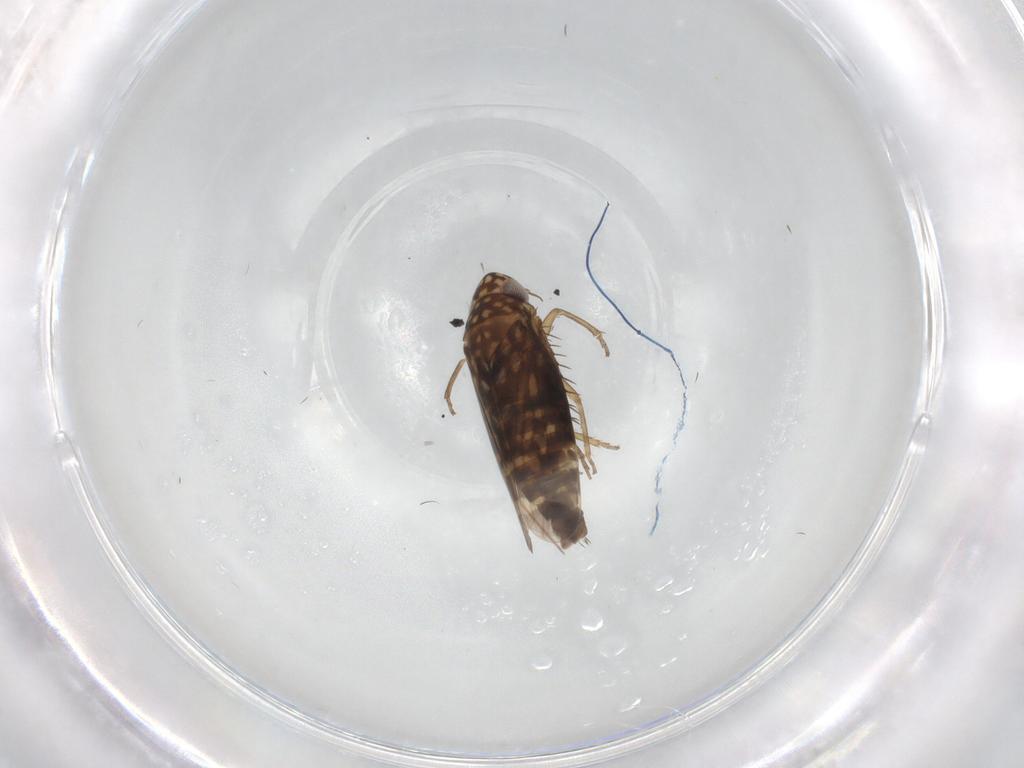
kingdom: Animalia
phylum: Arthropoda
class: Insecta
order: Hemiptera
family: Cicadellidae
